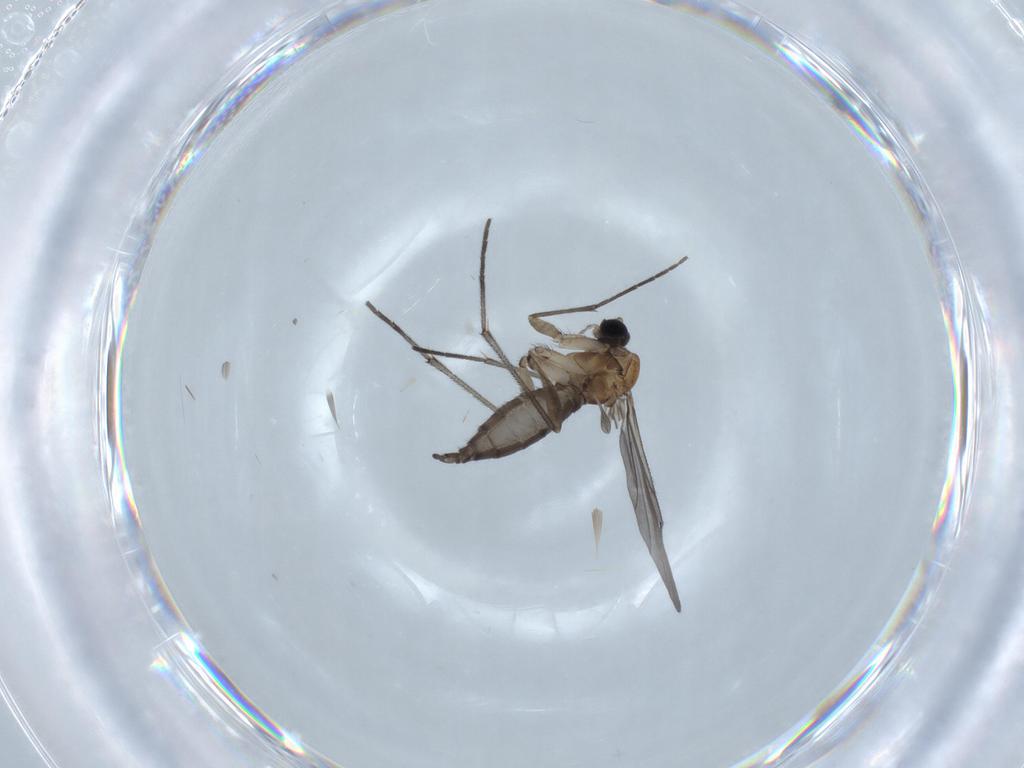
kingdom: Animalia
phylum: Arthropoda
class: Insecta
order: Diptera
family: Sciaridae
